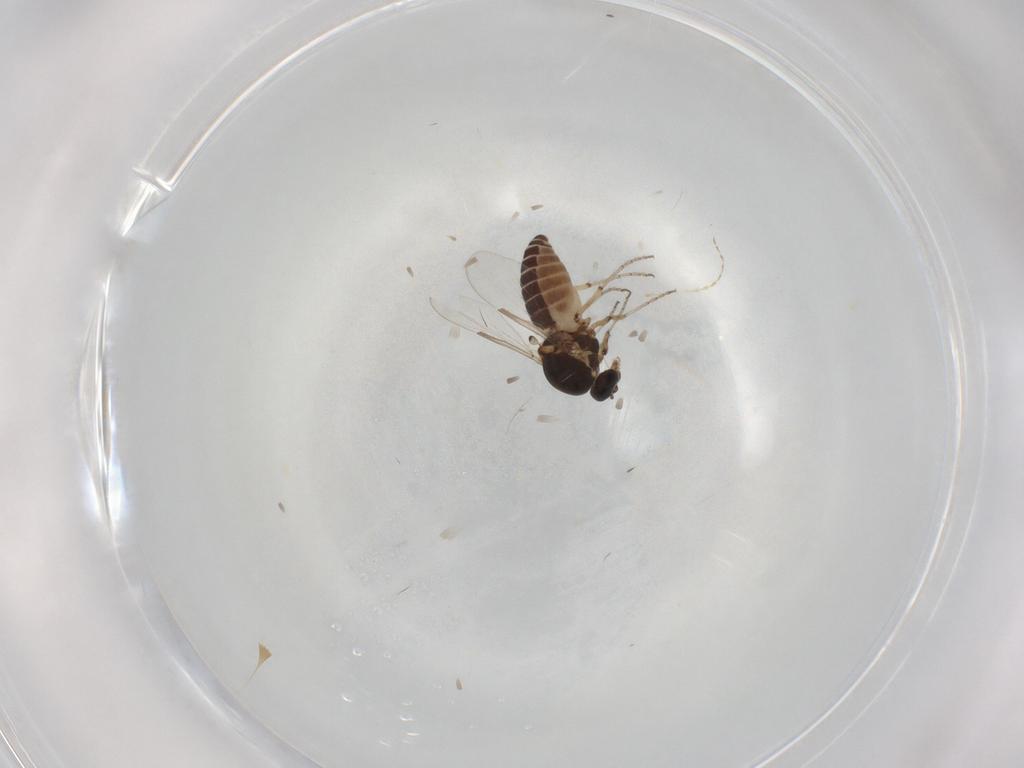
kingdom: Animalia
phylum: Arthropoda
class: Insecta
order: Diptera
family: Ceratopogonidae
